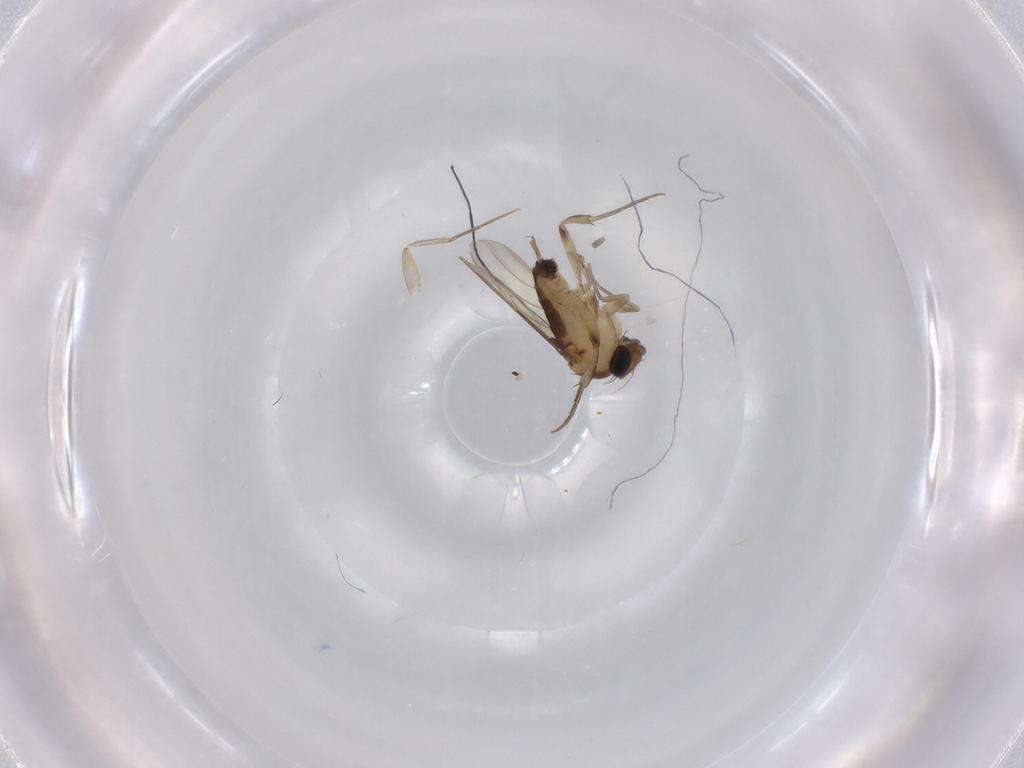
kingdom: Animalia
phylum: Arthropoda
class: Insecta
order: Diptera
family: Phoridae
